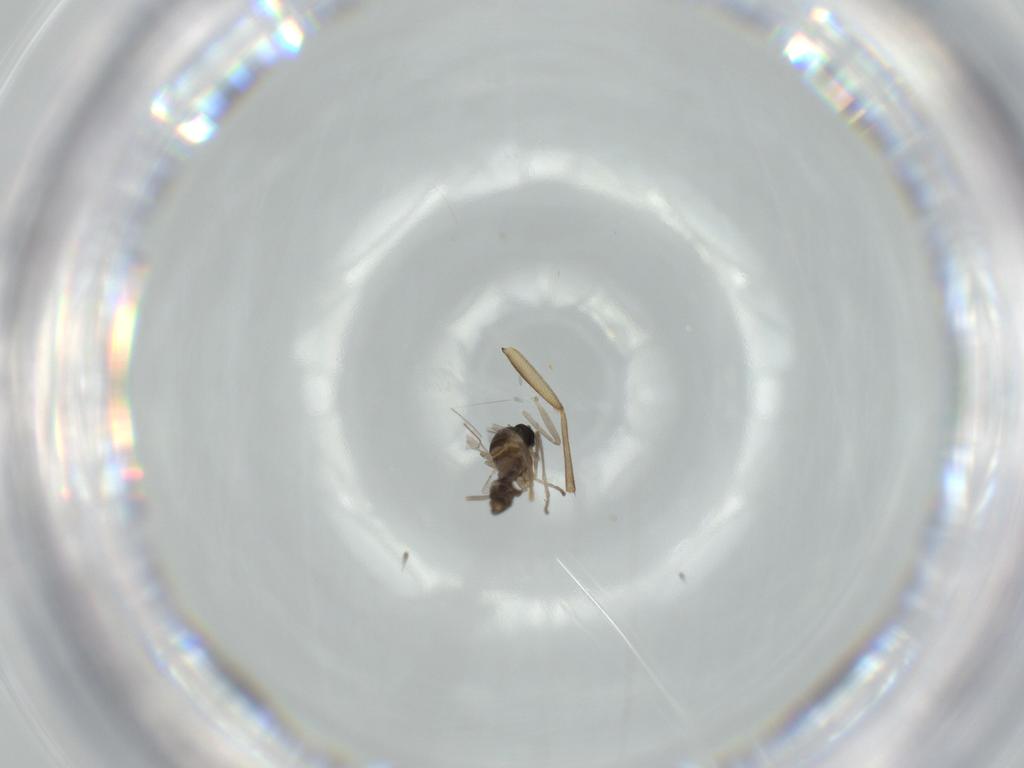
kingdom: Animalia
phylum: Arthropoda
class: Insecta
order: Diptera
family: Cecidomyiidae
